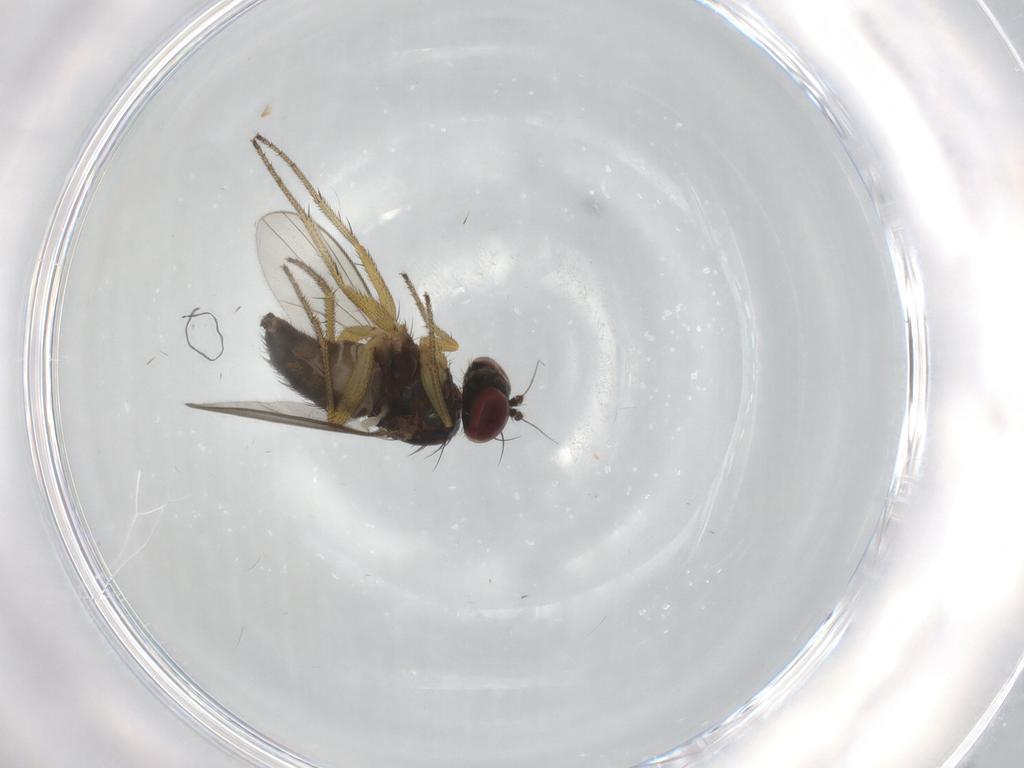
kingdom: Animalia
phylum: Arthropoda
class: Insecta
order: Diptera
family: Dolichopodidae
